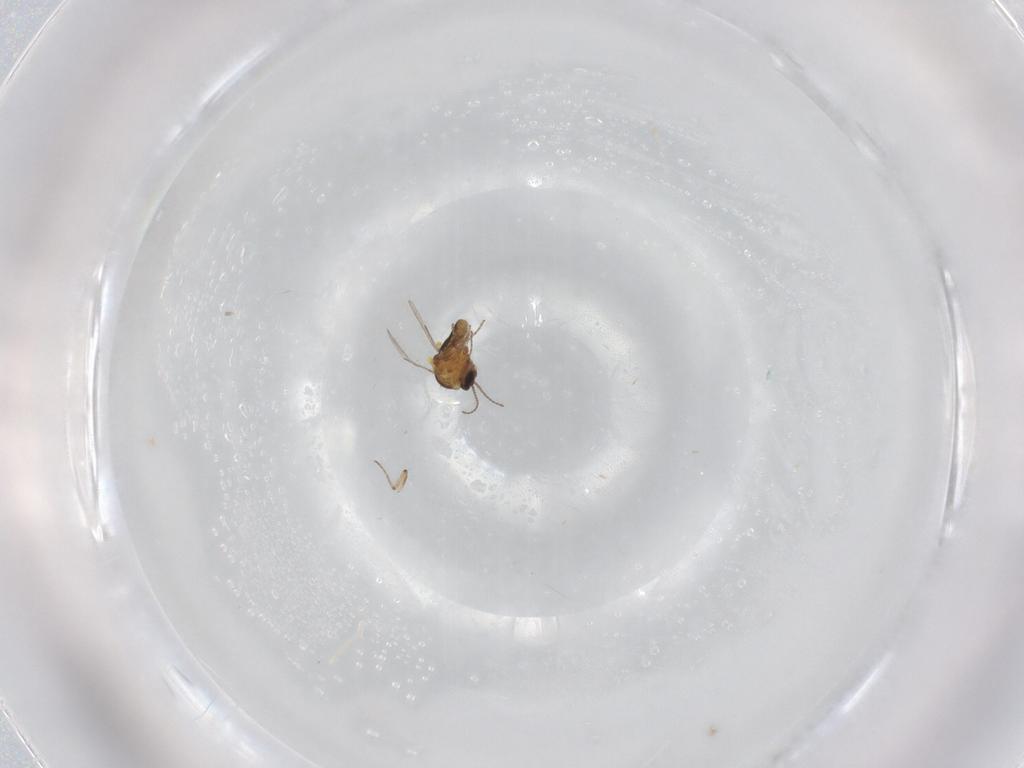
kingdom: Animalia
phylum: Arthropoda
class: Insecta
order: Diptera
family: Ceratopogonidae
